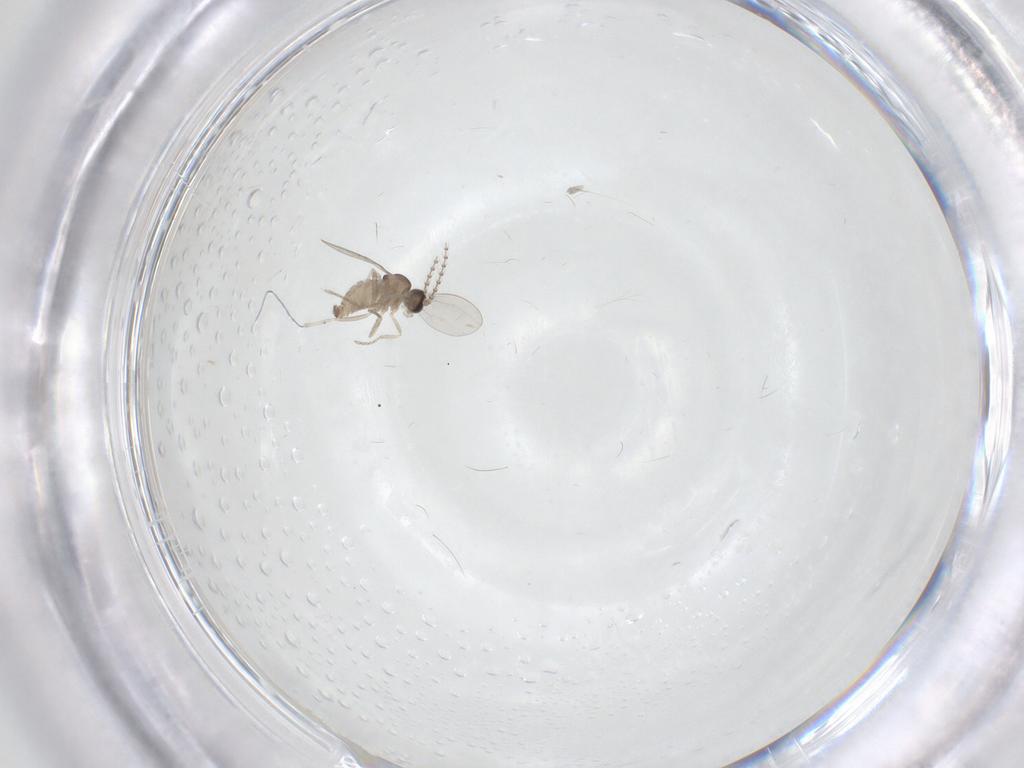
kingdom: Animalia
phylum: Arthropoda
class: Insecta
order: Diptera
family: Cecidomyiidae
